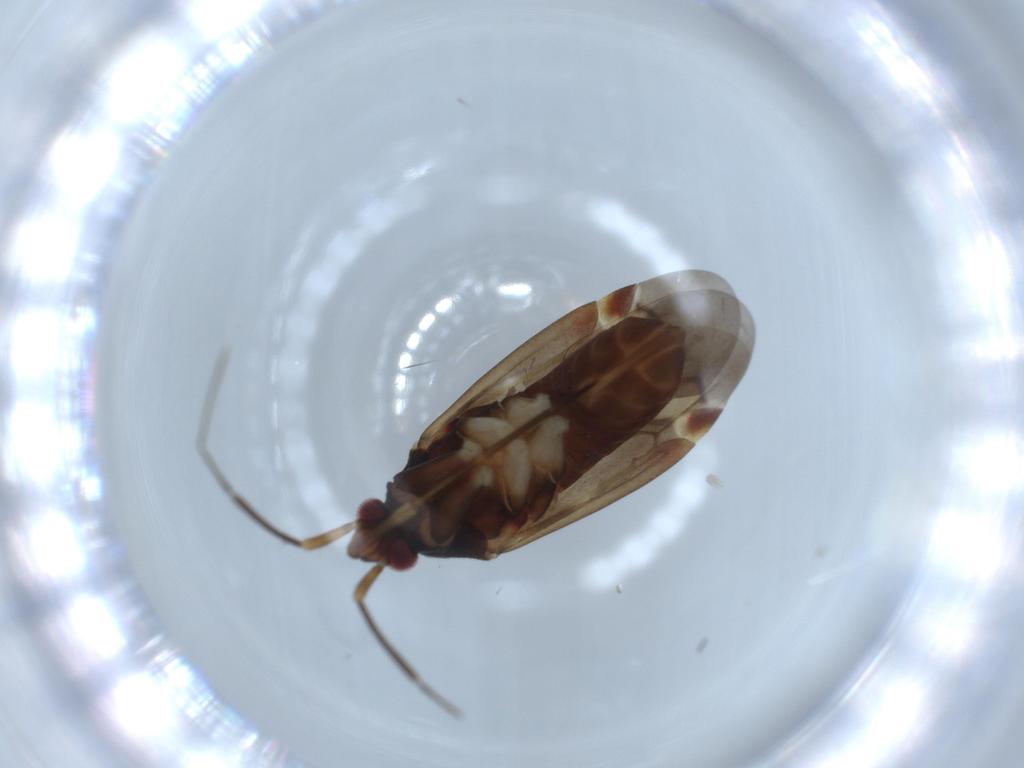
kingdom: Animalia
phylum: Arthropoda
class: Insecta
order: Hemiptera
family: Miridae
